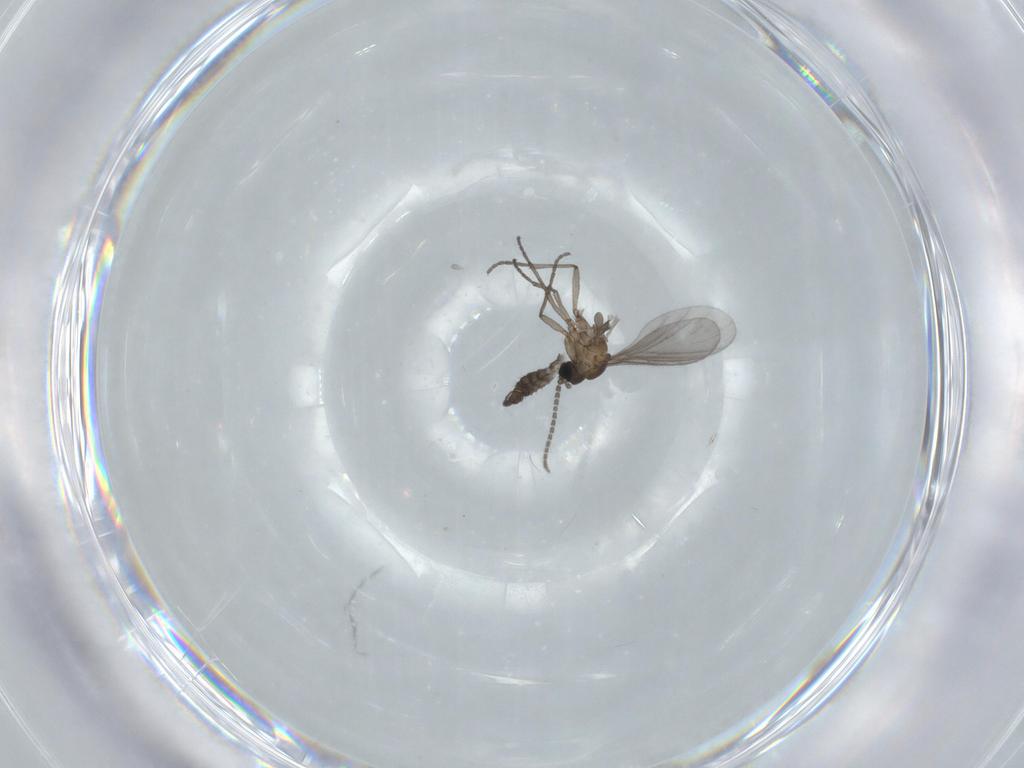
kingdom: Animalia
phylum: Arthropoda
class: Insecta
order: Diptera
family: Sciaridae
